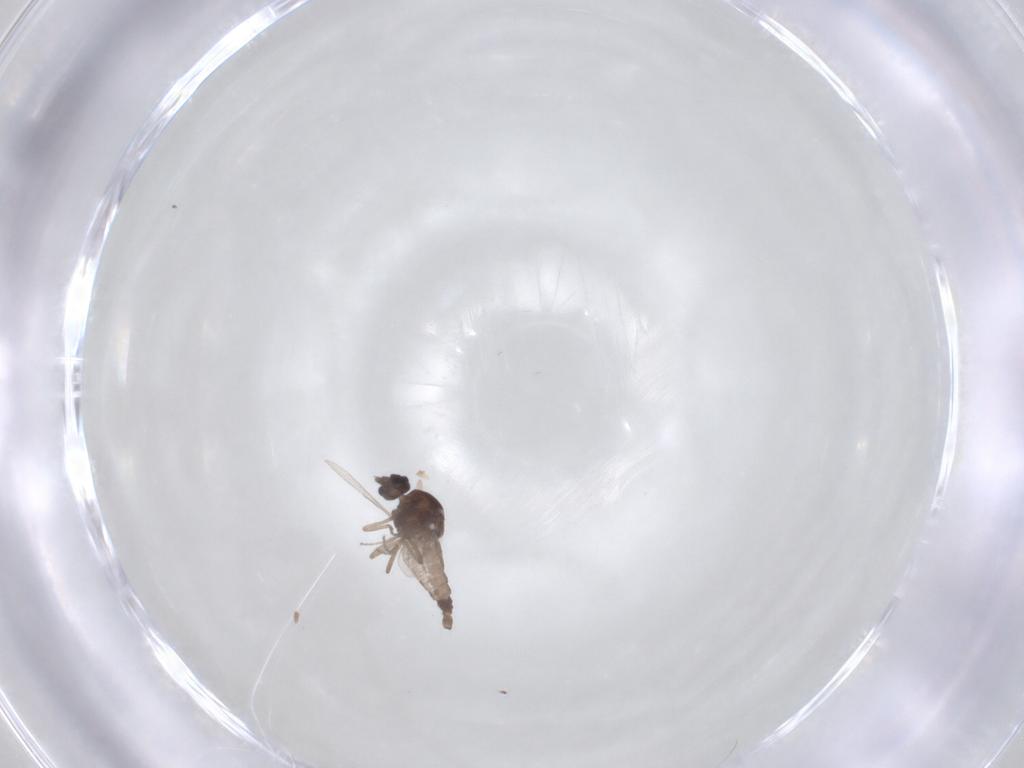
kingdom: Animalia
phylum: Arthropoda
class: Insecta
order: Diptera
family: Ceratopogonidae
